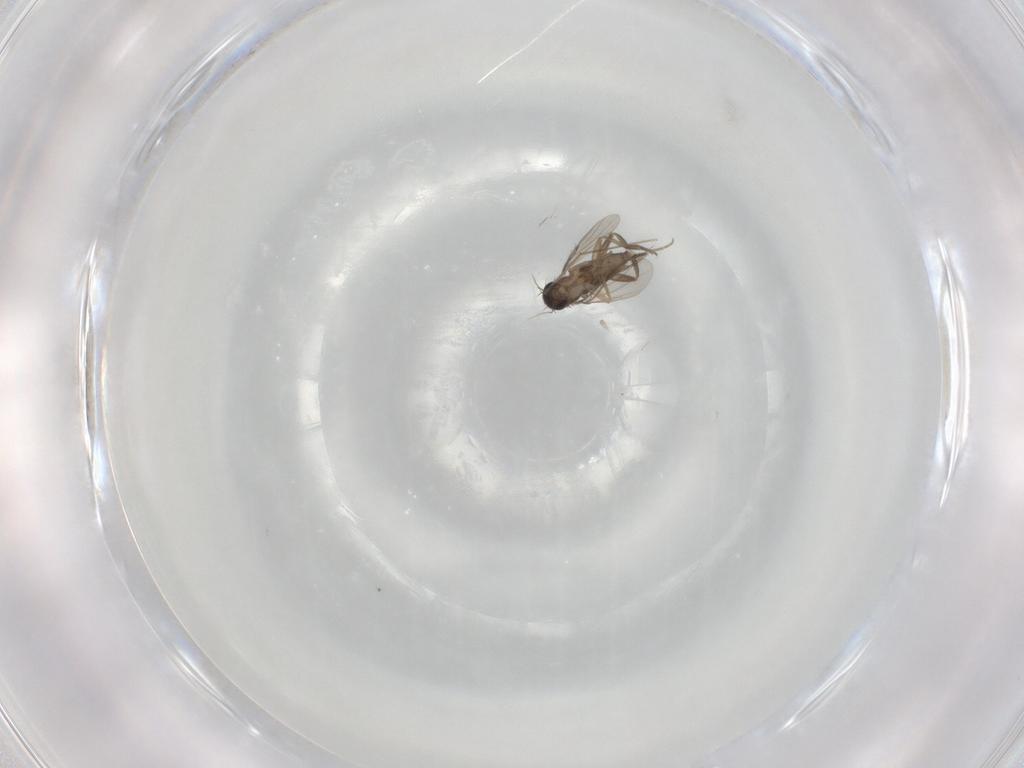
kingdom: Animalia
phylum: Arthropoda
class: Insecta
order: Diptera
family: Phoridae
